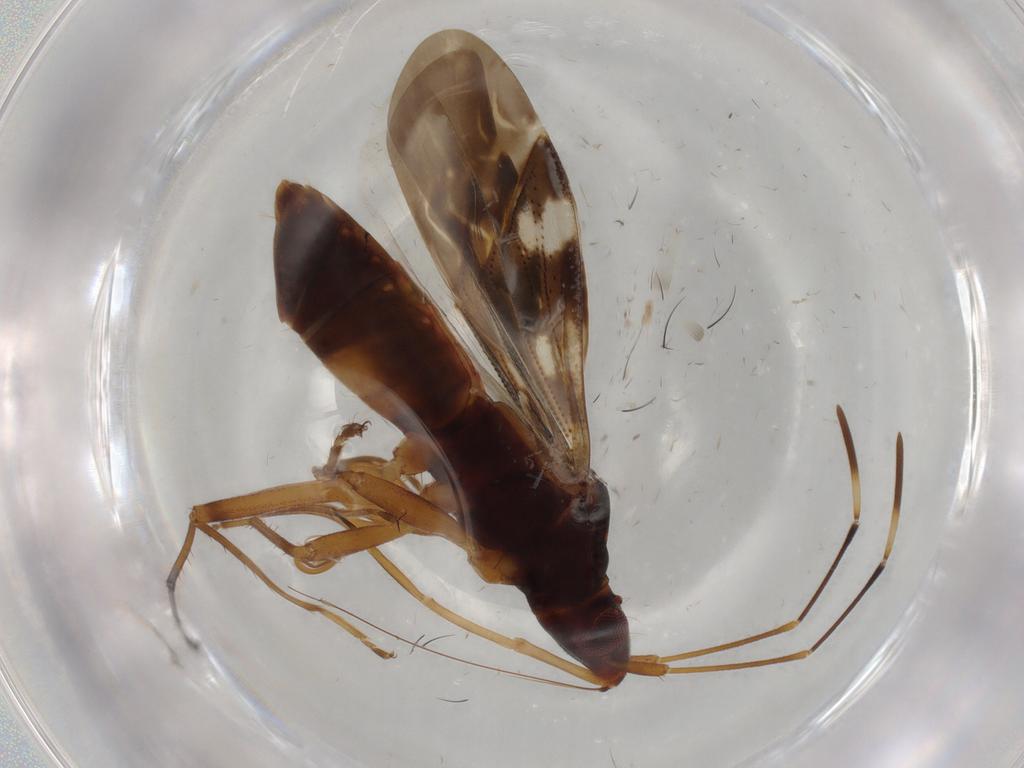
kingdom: Animalia
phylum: Arthropoda
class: Insecta
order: Hemiptera
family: Rhyparochromidae
